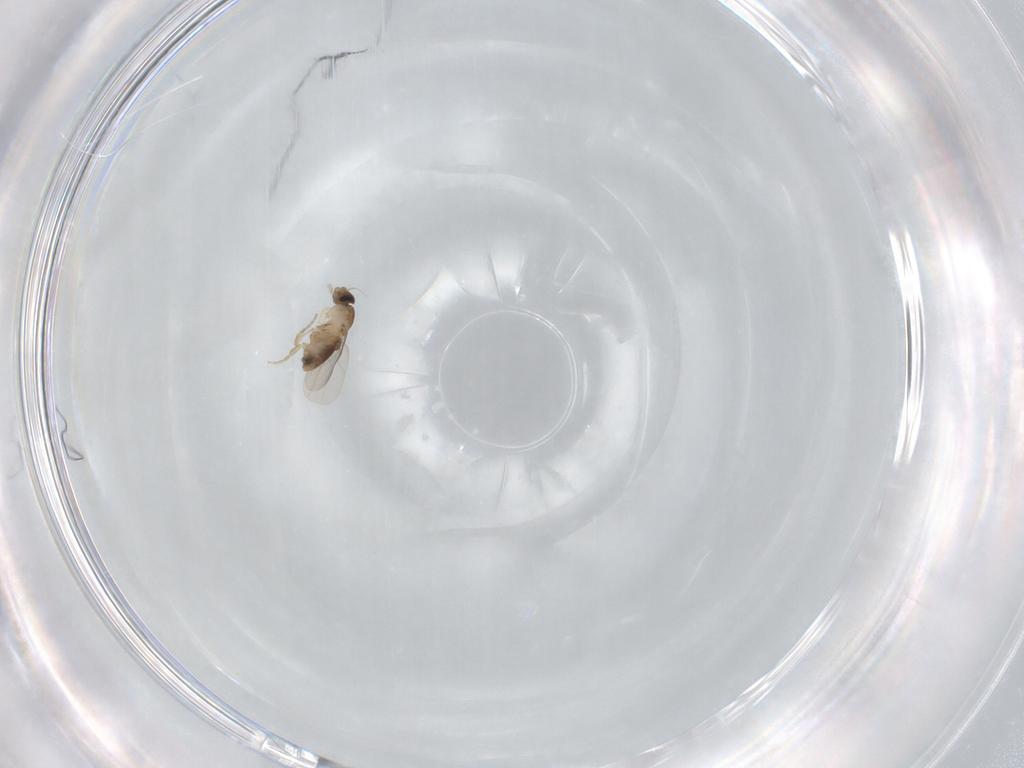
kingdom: Animalia
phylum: Arthropoda
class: Insecta
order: Diptera
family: Phoridae
